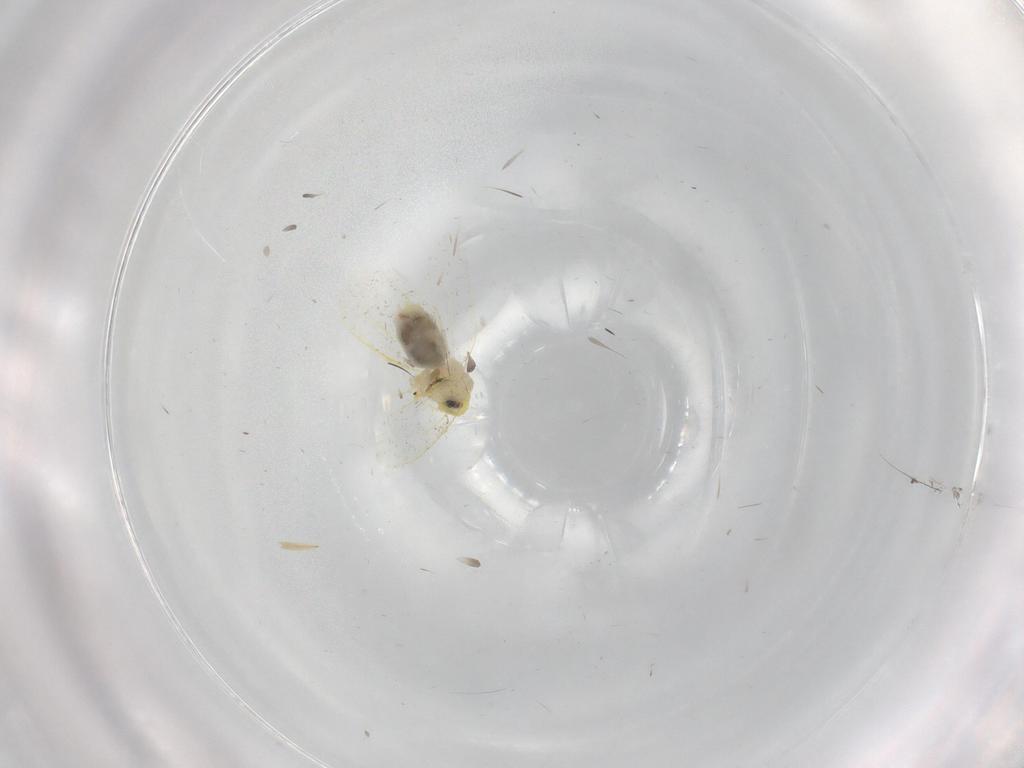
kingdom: Animalia
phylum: Arthropoda
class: Insecta
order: Hemiptera
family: Aleyrodidae
